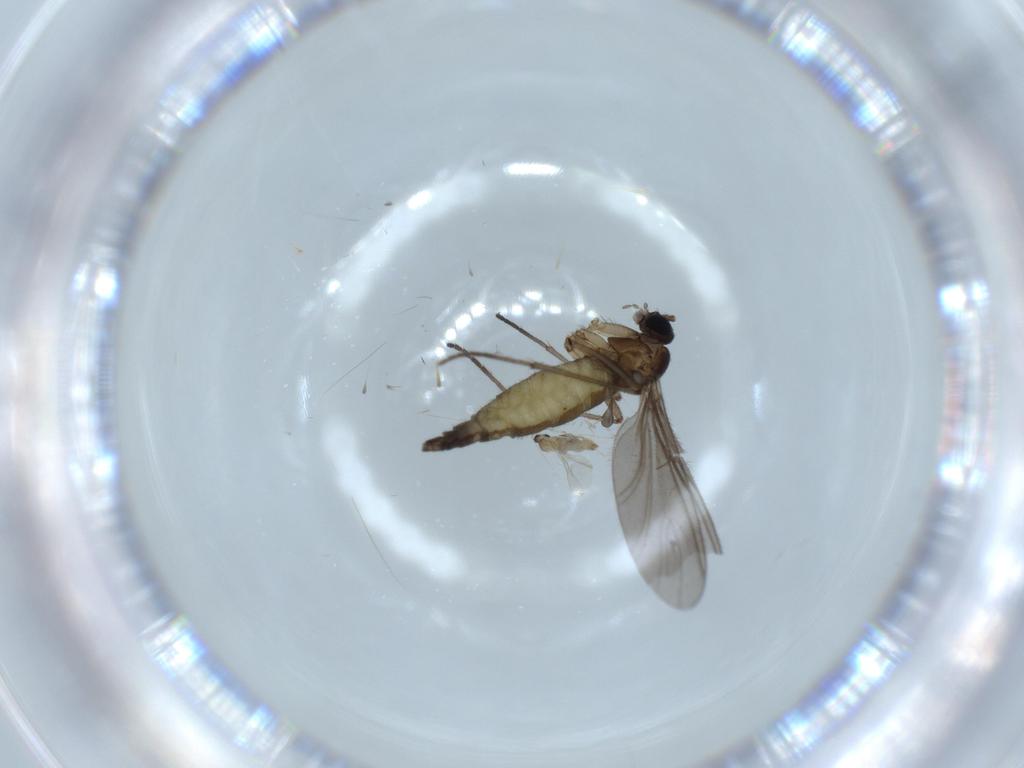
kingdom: Animalia
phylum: Arthropoda
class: Insecta
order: Diptera
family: Sciaridae
